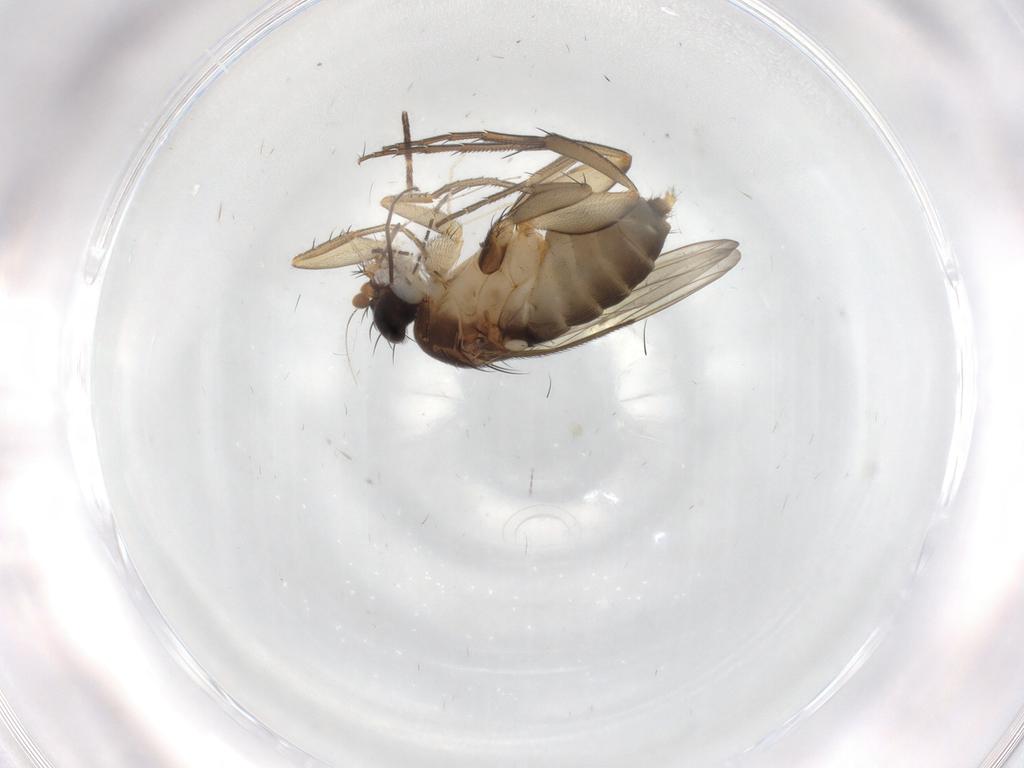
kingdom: Animalia
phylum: Arthropoda
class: Insecta
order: Diptera
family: Phoridae
